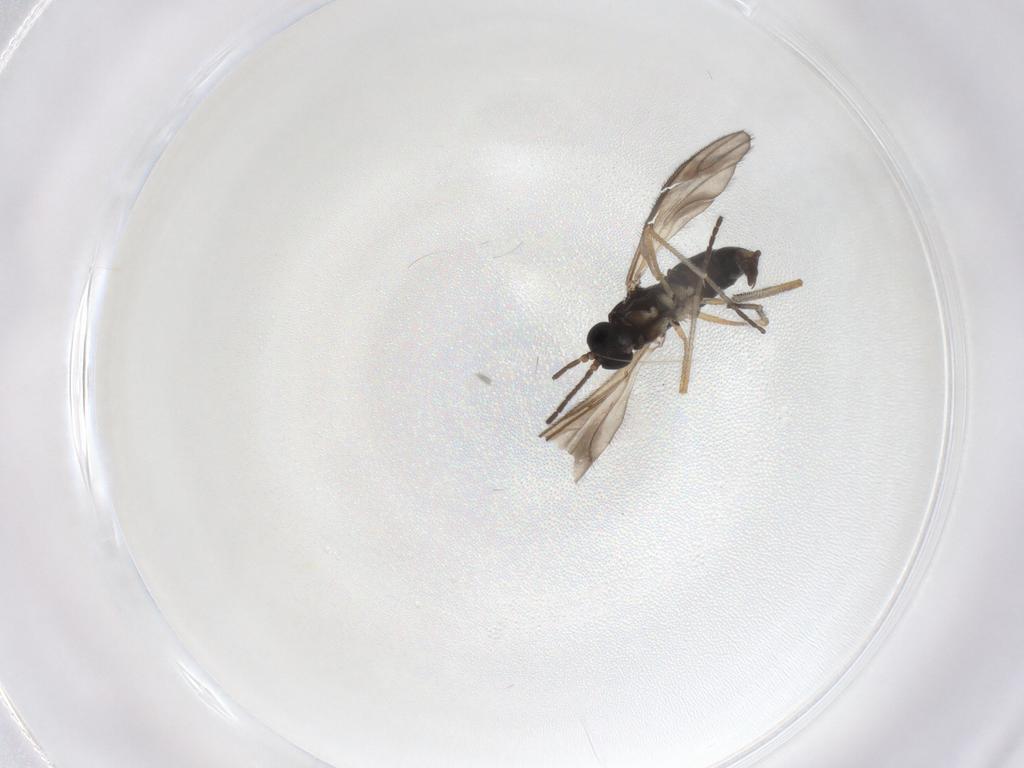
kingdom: Animalia
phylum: Arthropoda
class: Insecta
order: Diptera
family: Sciaridae
